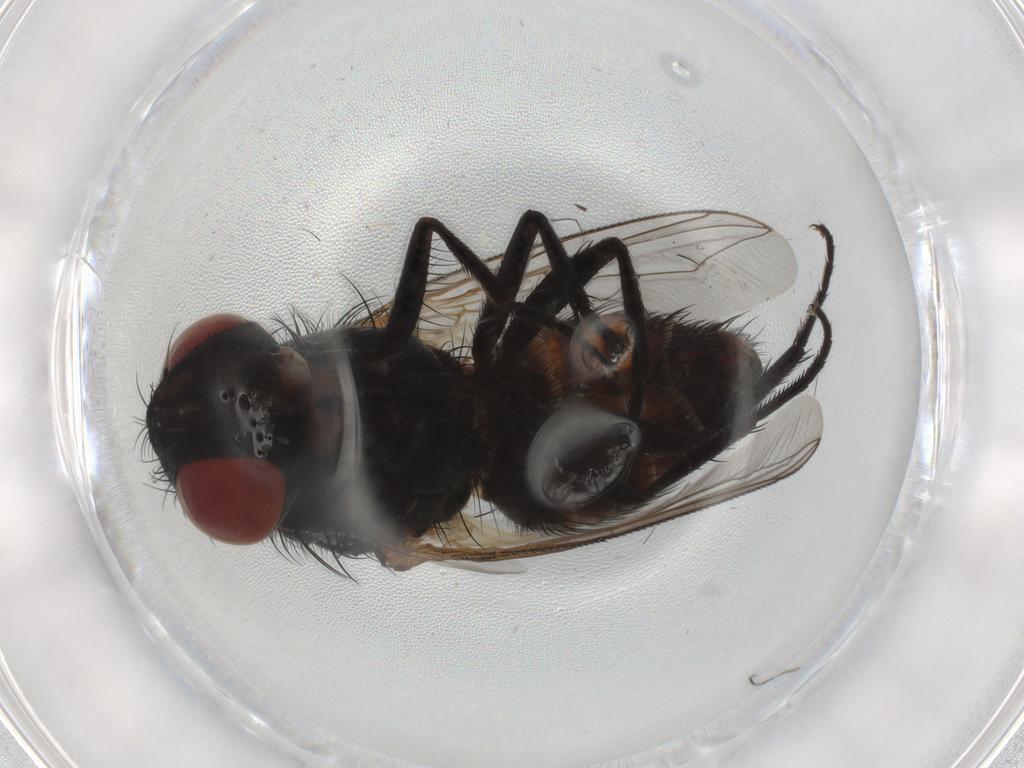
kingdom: Animalia
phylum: Arthropoda
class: Insecta
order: Diptera
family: Sarcophagidae
